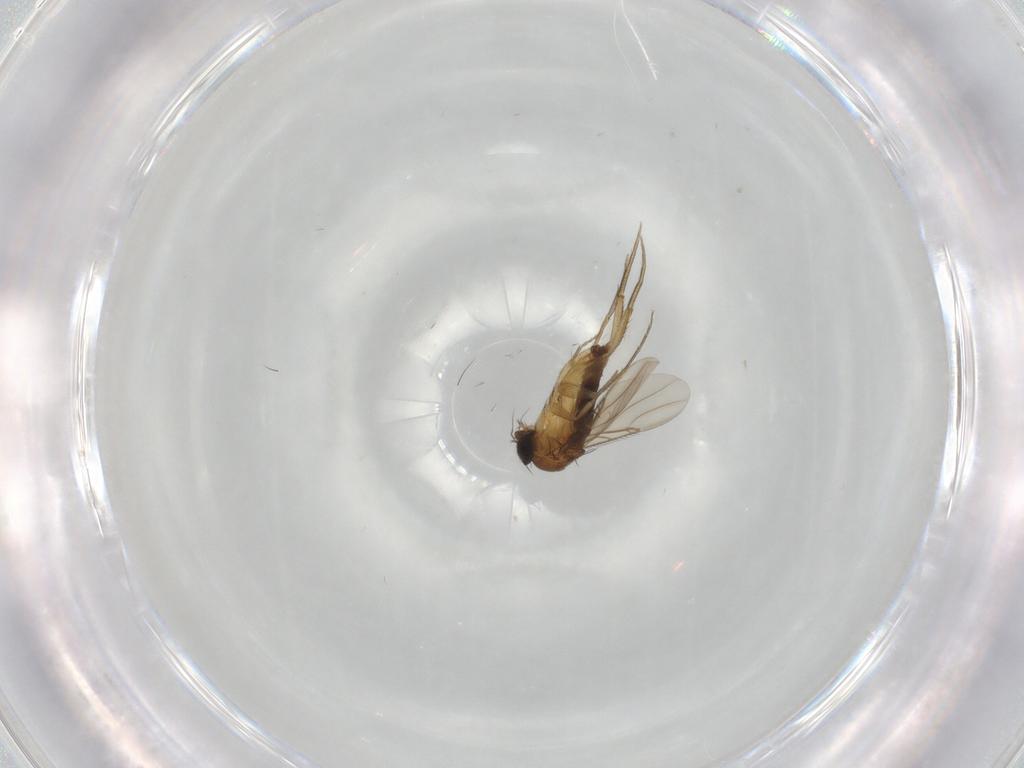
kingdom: Animalia
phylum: Arthropoda
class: Insecta
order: Diptera
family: Phoridae
